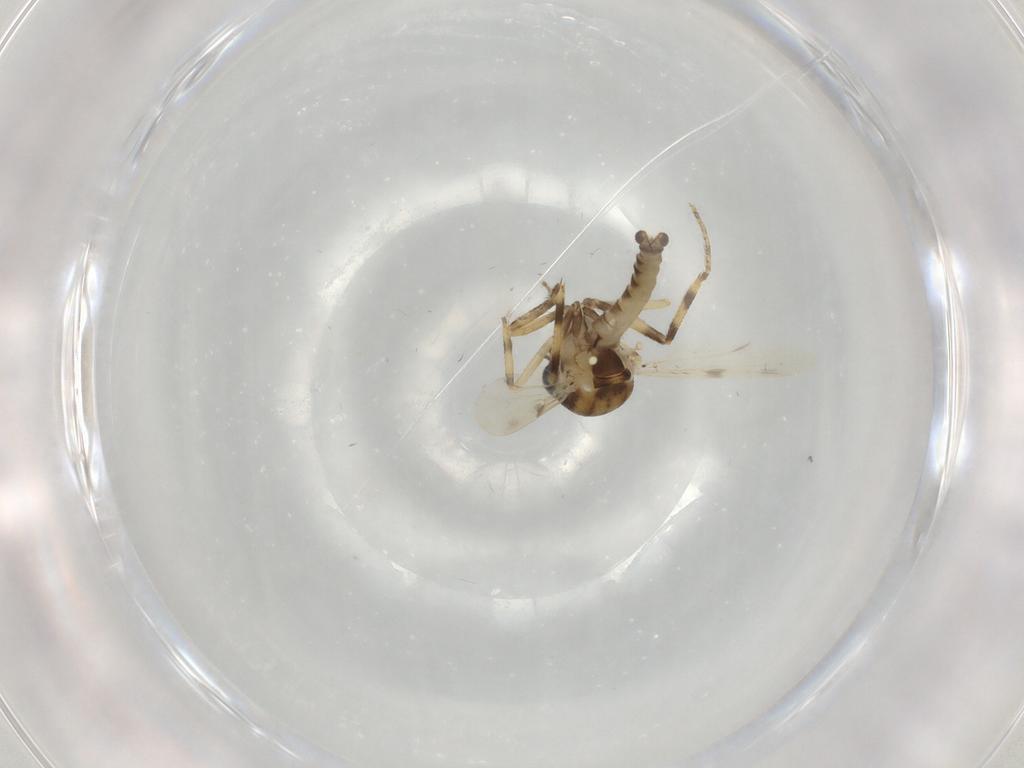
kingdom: Animalia
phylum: Arthropoda
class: Insecta
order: Diptera
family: Ceratopogonidae
